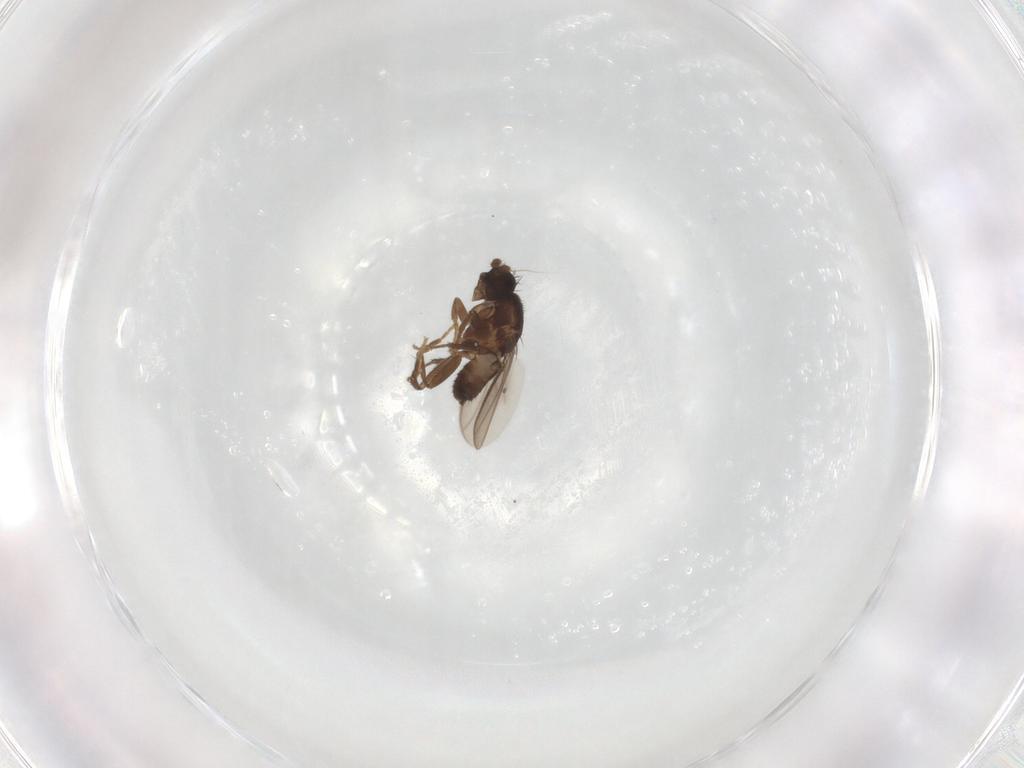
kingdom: Animalia
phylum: Arthropoda
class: Insecta
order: Diptera
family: Sphaeroceridae
